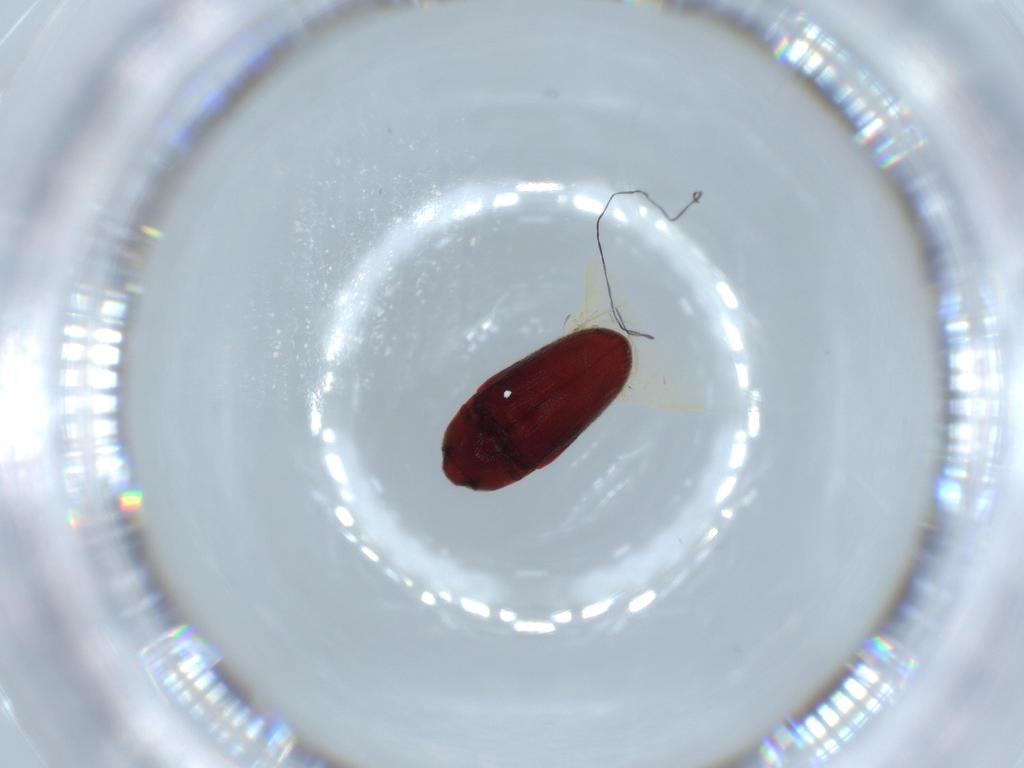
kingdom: Animalia
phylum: Arthropoda
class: Insecta
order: Coleoptera
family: Throscidae
